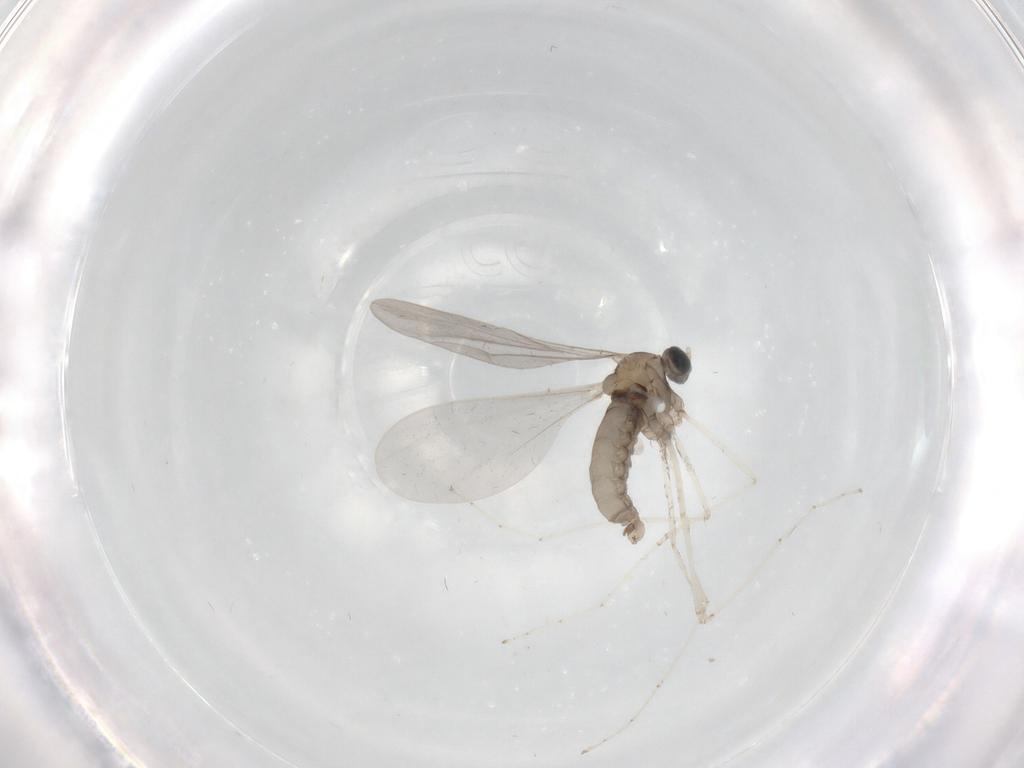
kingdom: Animalia
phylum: Arthropoda
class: Insecta
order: Diptera
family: Cecidomyiidae
